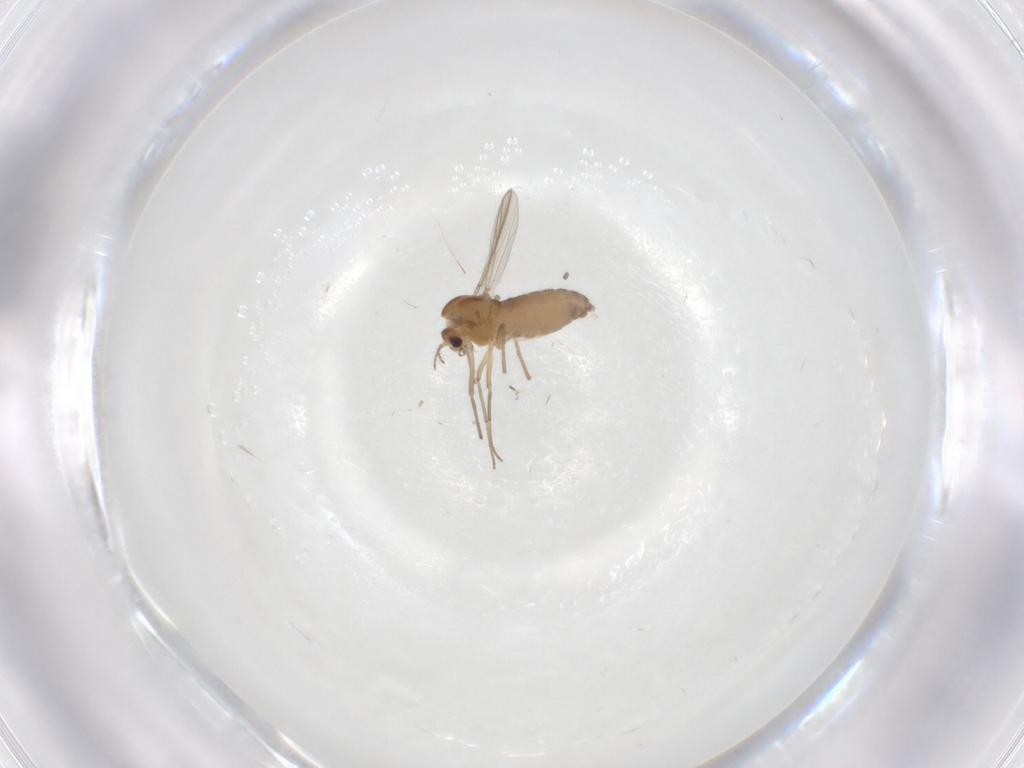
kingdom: Animalia
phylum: Arthropoda
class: Insecta
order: Diptera
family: Chironomidae
